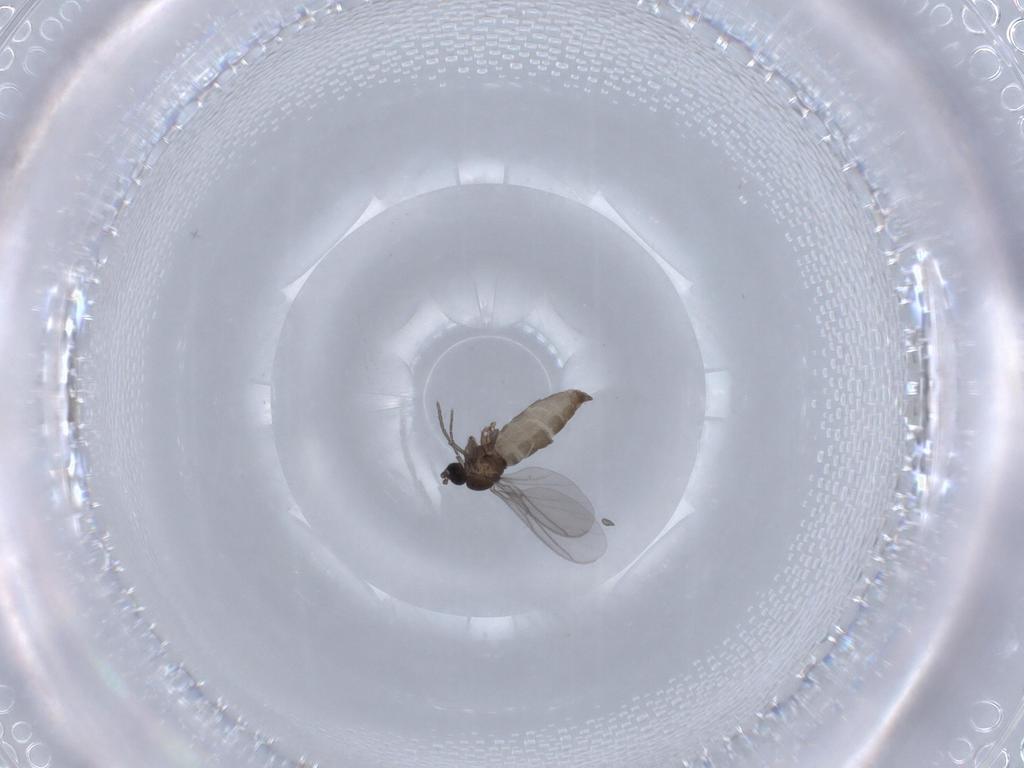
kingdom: Animalia
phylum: Arthropoda
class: Insecta
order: Diptera
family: Sciaridae
